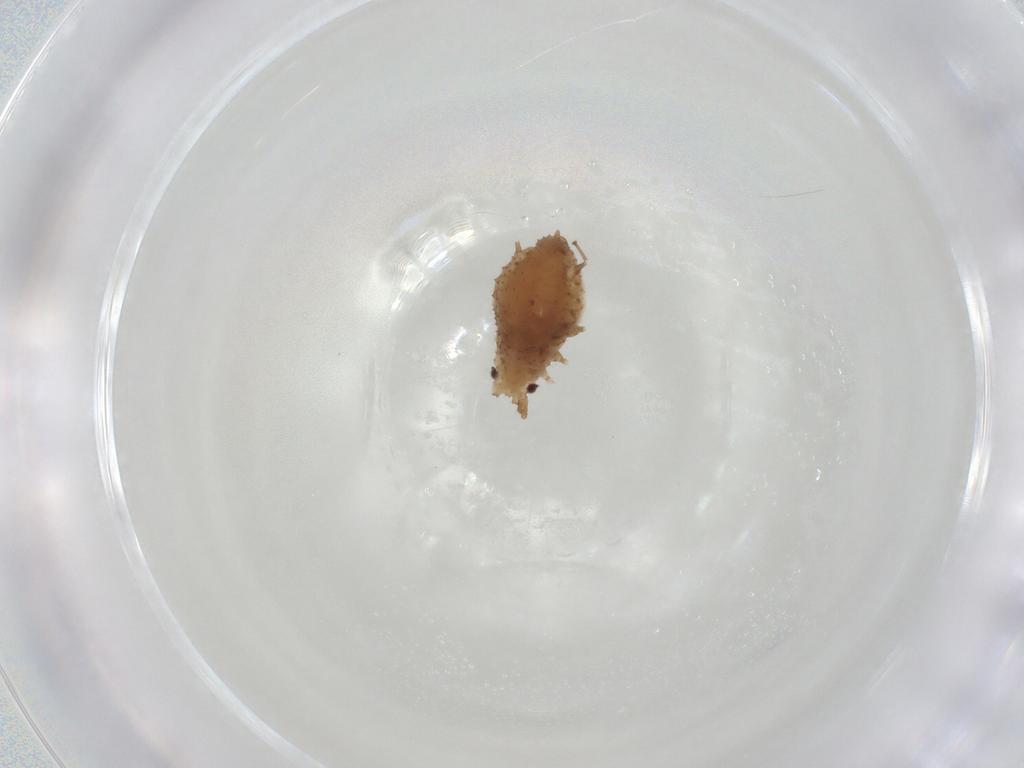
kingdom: Animalia
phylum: Arthropoda
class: Insecta
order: Hemiptera
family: Aphididae
